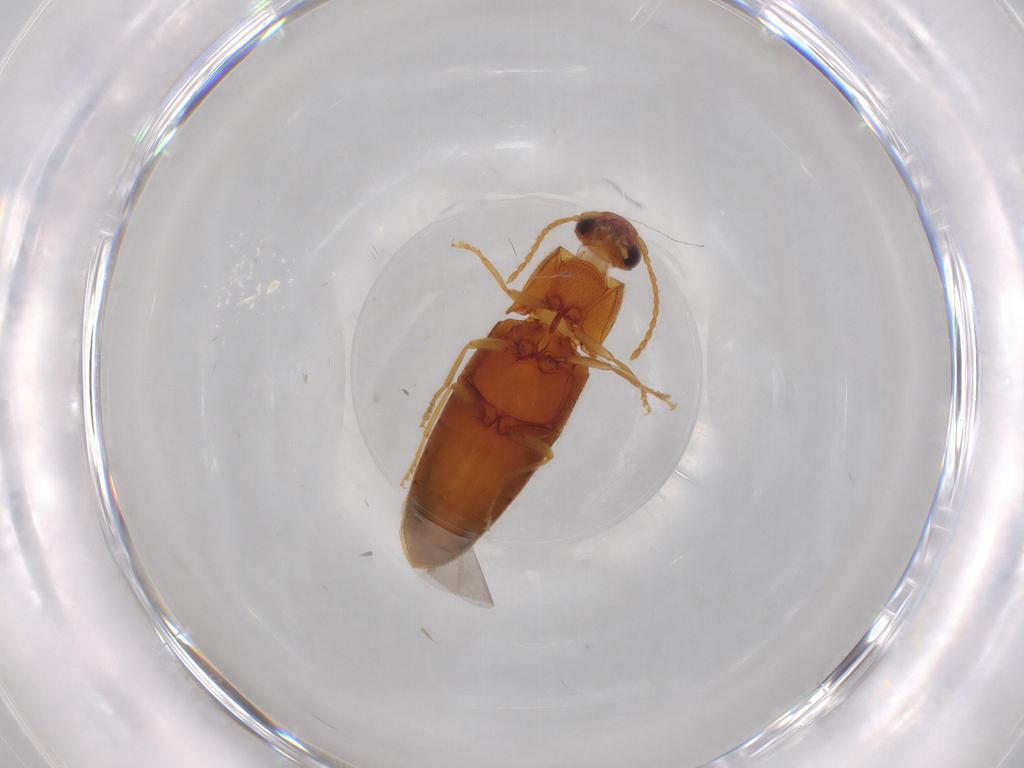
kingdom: Animalia
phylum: Arthropoda
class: Insecta
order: Coleoptera
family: Elateridae
